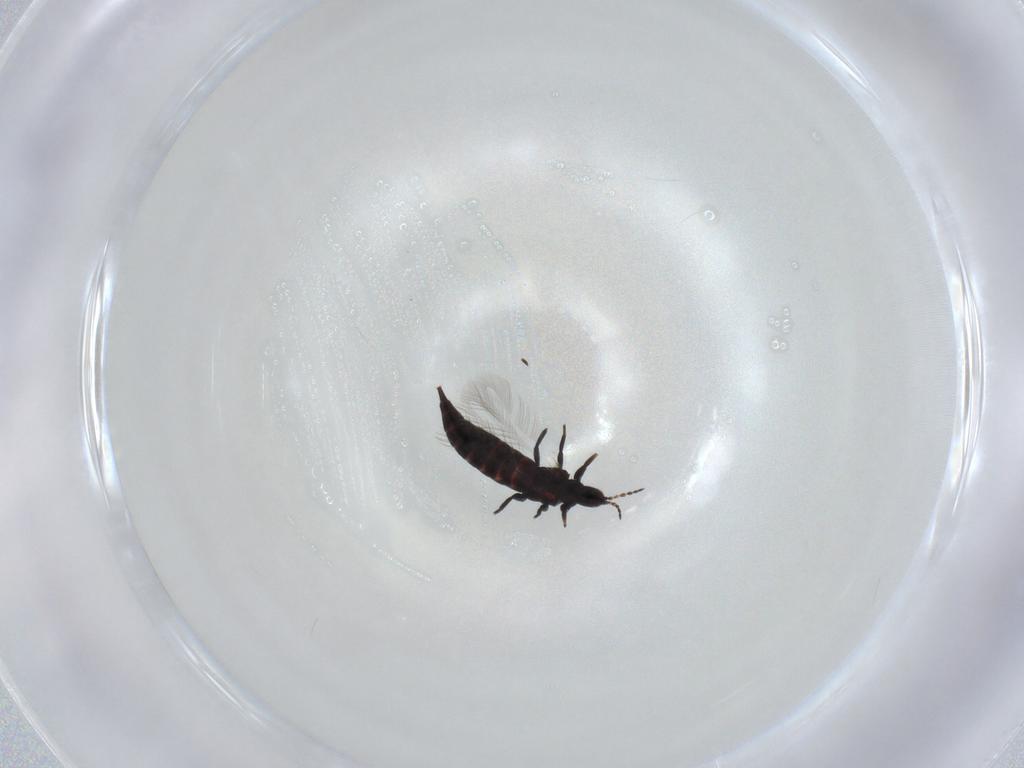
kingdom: Animalia
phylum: Arthropoda
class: Insecta
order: Thysanoptera
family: Phlaeothripidae
